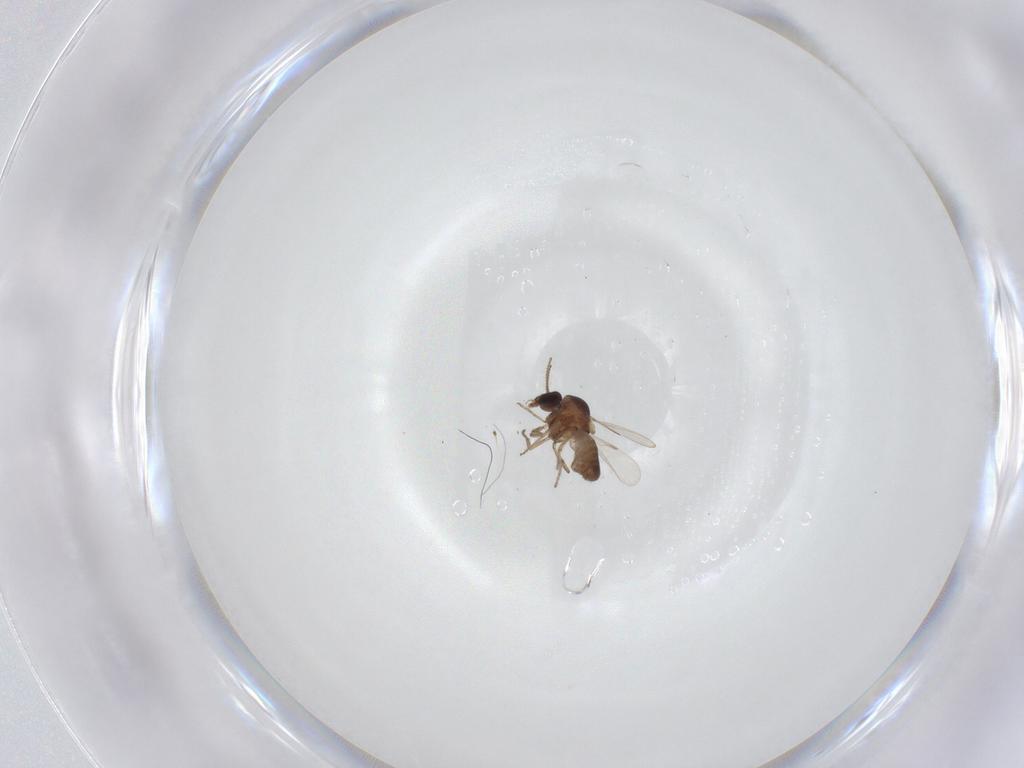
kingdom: Animalia
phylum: Arthropoda
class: Insecta
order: Diptera
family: Ceratopogonidae
